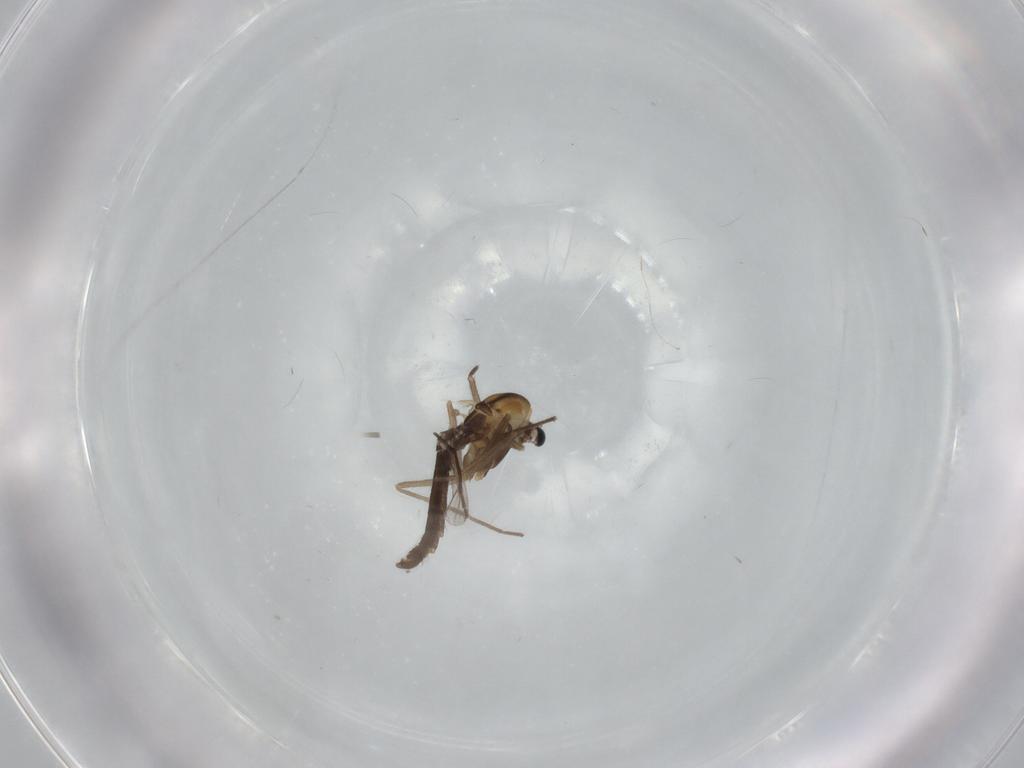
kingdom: Animalia
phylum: Arthropoda
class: Insecta
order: Diptera
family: Chironomidae
